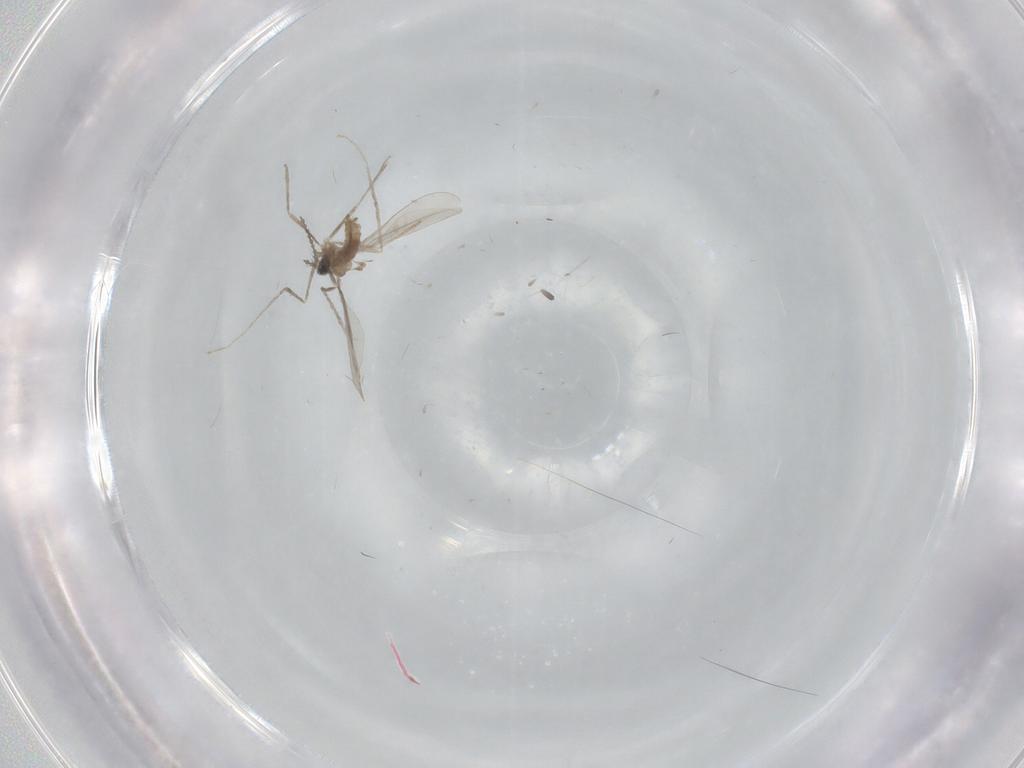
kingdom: Animalia
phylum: Arthropoda
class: Insecta
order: Diptera
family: Cecidomyiidae
